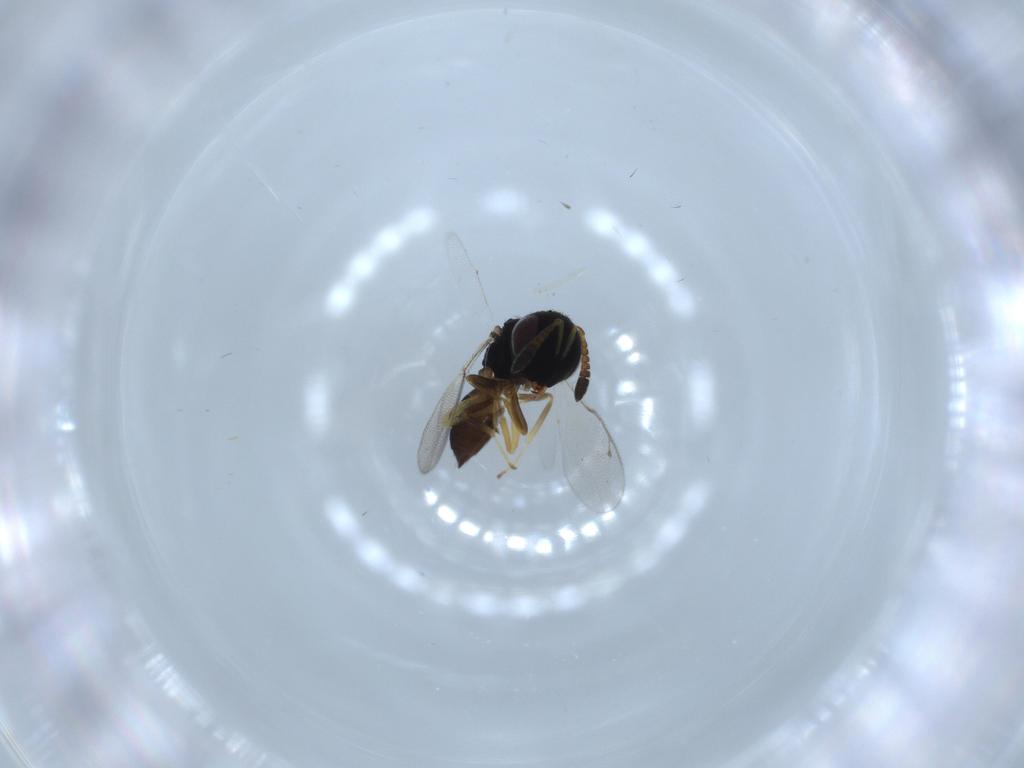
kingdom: Animalia
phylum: Arthropoda
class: Insecta
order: Hymenoptera
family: Pteromalidae
